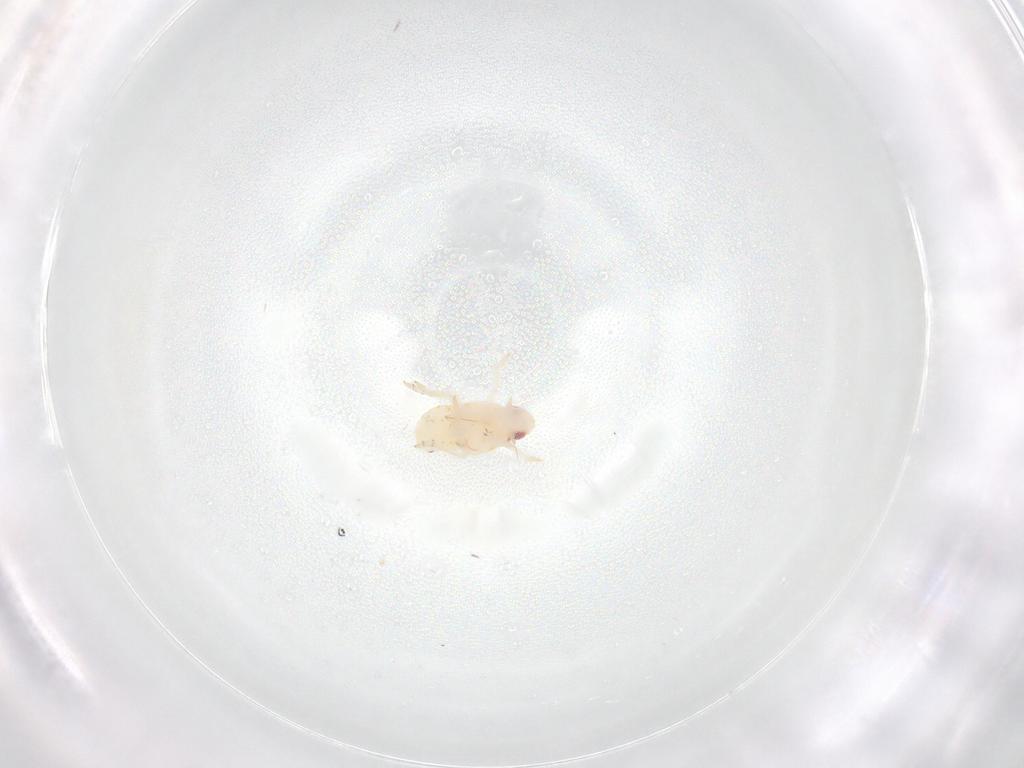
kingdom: Animalia
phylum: Arthropoda
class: Insecta
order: Hemiptera
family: Flatidae
